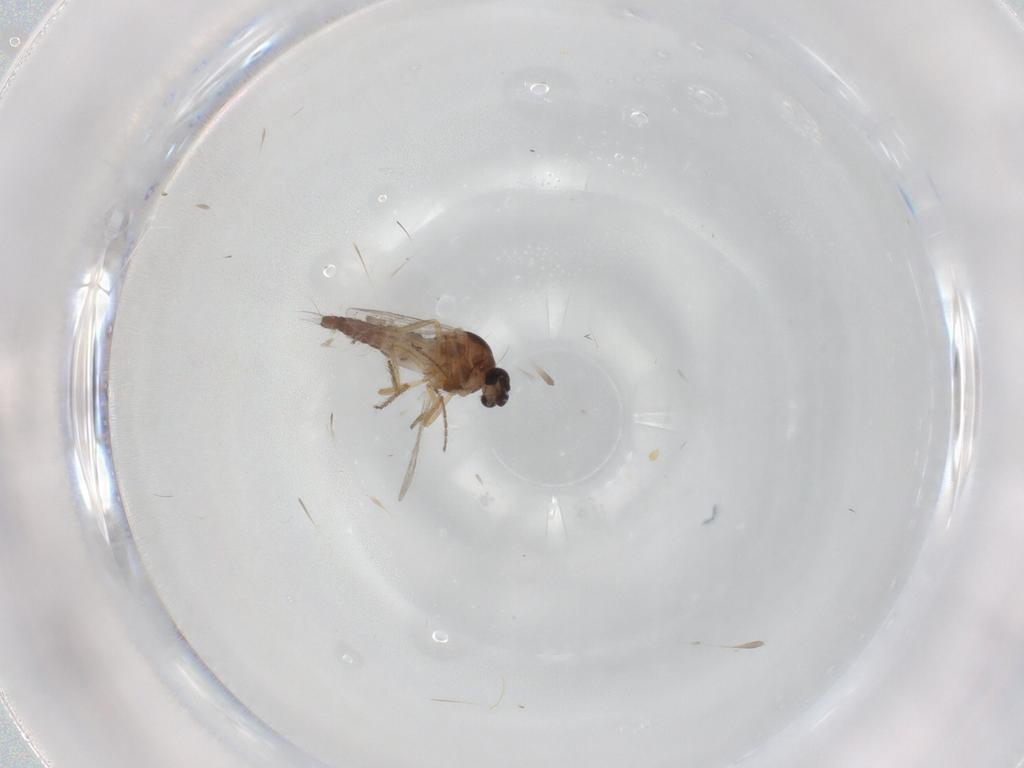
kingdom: Animalia
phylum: Arthropoda
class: Insecta
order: Diptera
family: Ceratopogonidae
